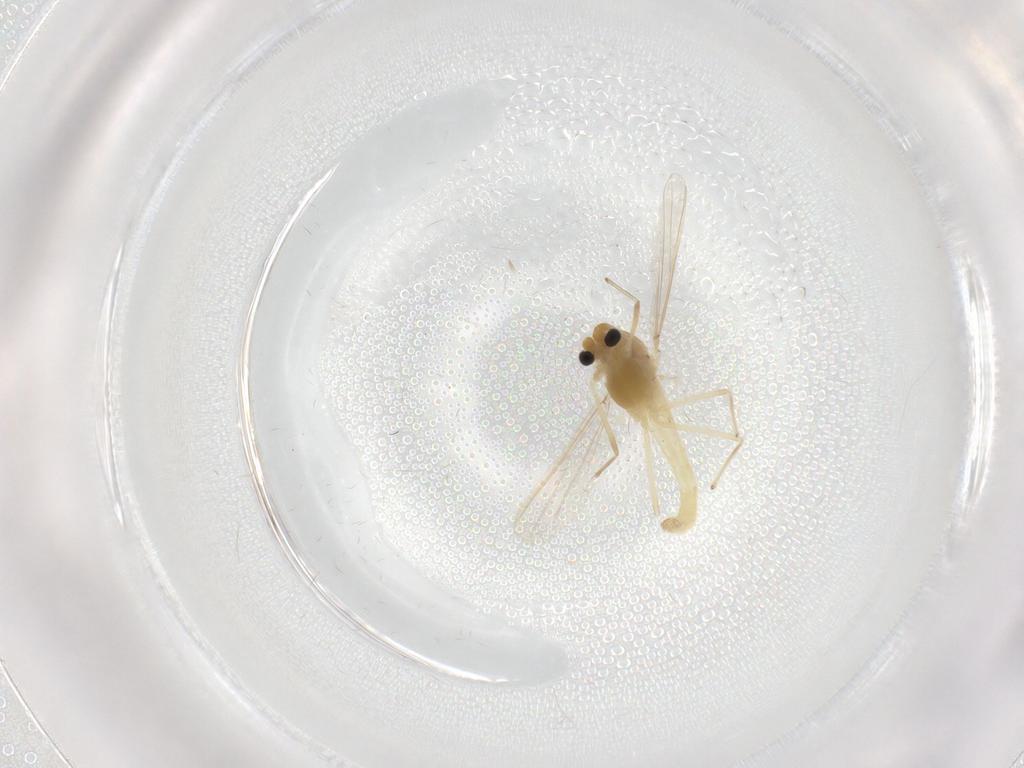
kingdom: Animalia
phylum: Arthropoda
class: Insecta
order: Diptera
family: Chironomidae
